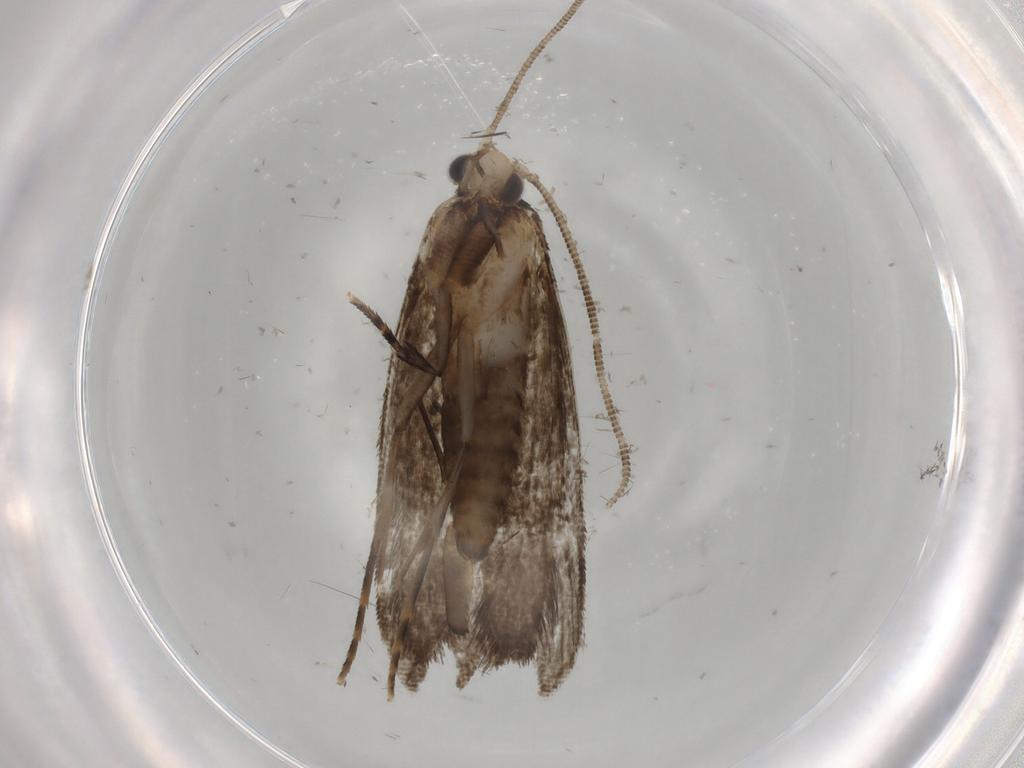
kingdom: Animalia
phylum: Arthropoda
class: Insecta
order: Lepidoptera
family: Tineidae
